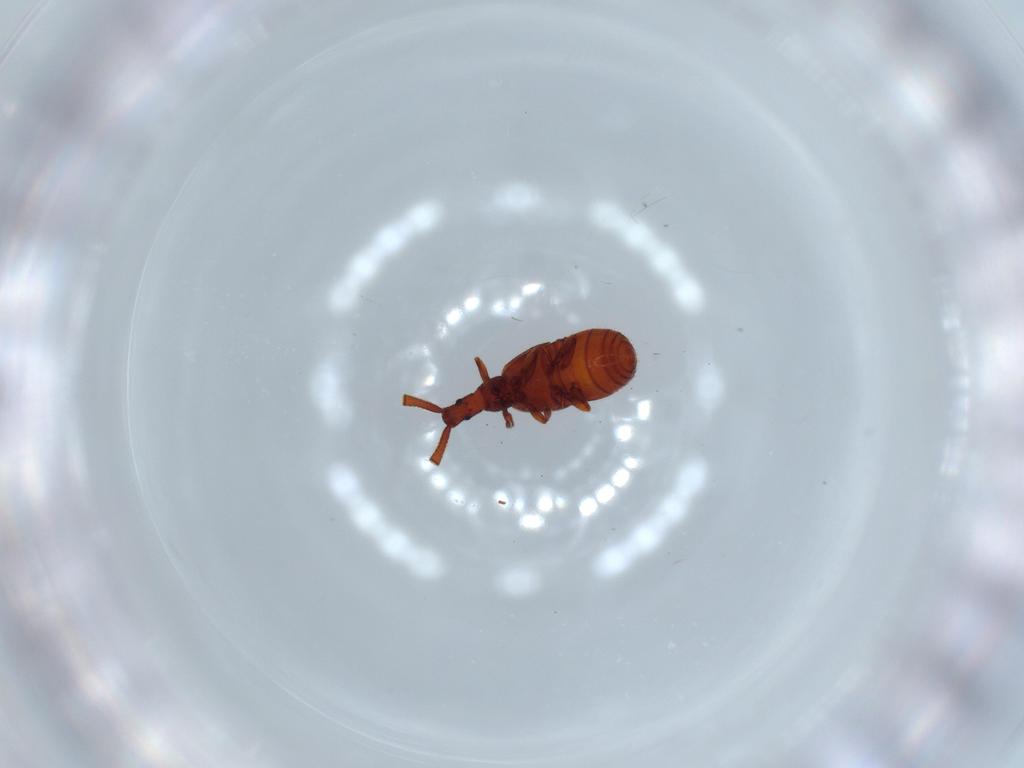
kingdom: Animalia
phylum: Arthropoda
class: Insecta
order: Coleoptera
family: Staphylinidae
